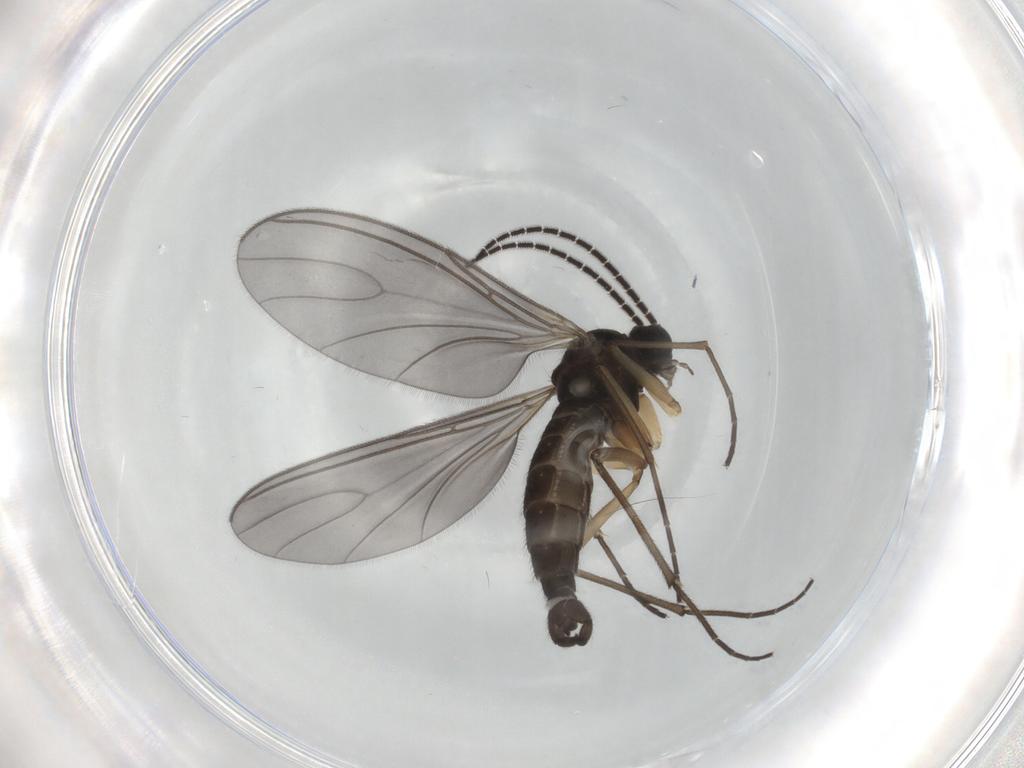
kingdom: Animalia
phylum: Arthropoda
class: Insecta
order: Diptera
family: Sciaridae
